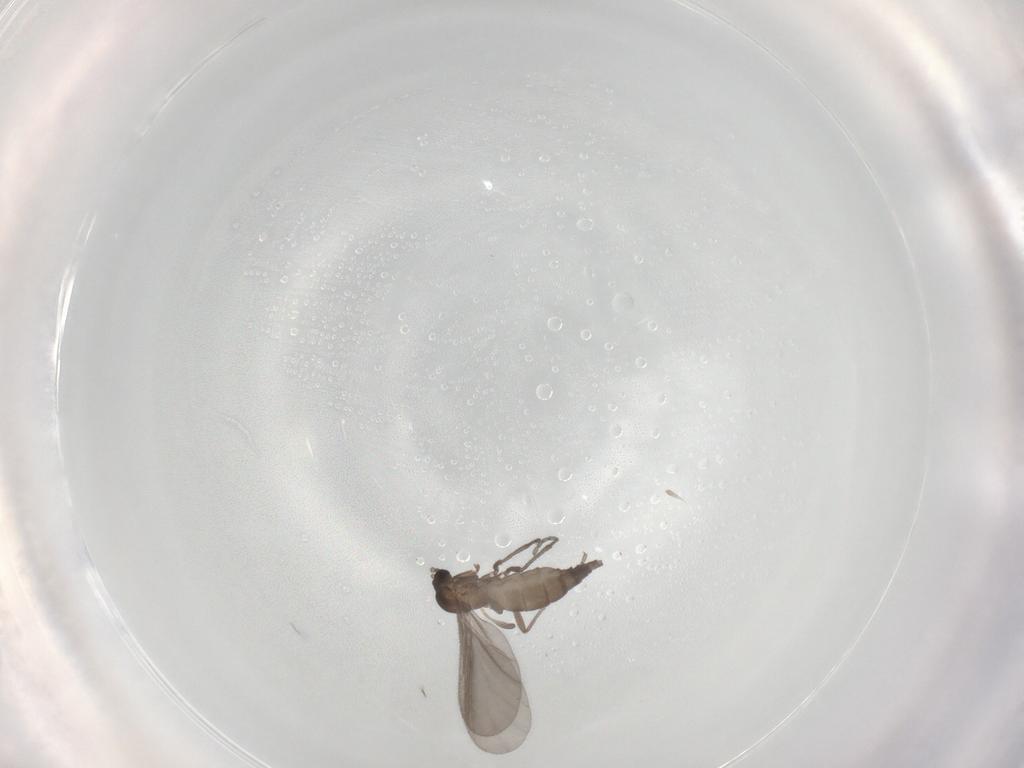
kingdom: Animalia
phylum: Arthropoda
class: Insecta
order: Diptera
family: Sciaridae
